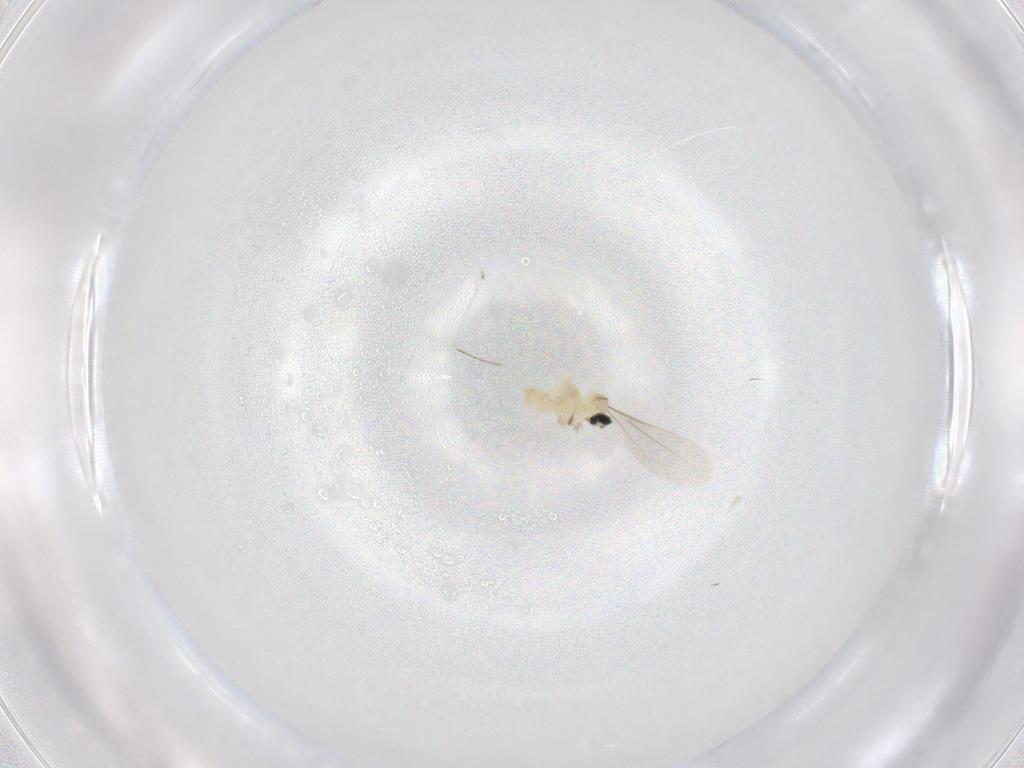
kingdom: Animalia
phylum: Arthropoda
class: Insecta
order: Diptera
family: Cecidomyiidae
